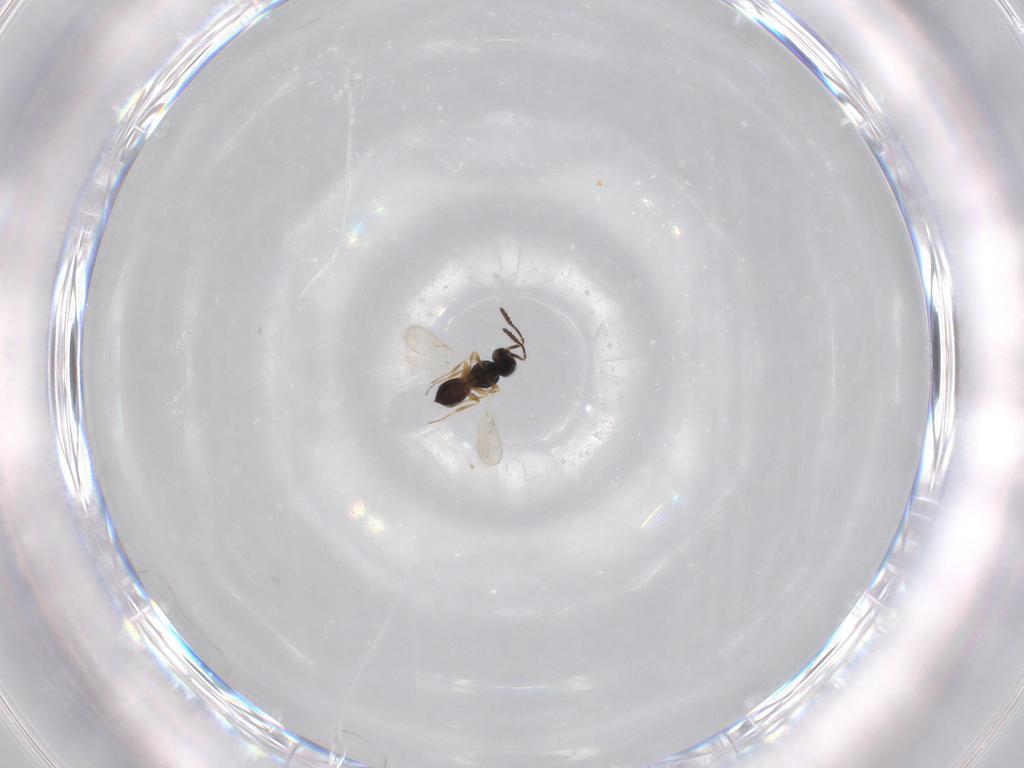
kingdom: Animalia
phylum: Arthropoda
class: Insecta
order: Hymenoptera
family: Scelionidae
